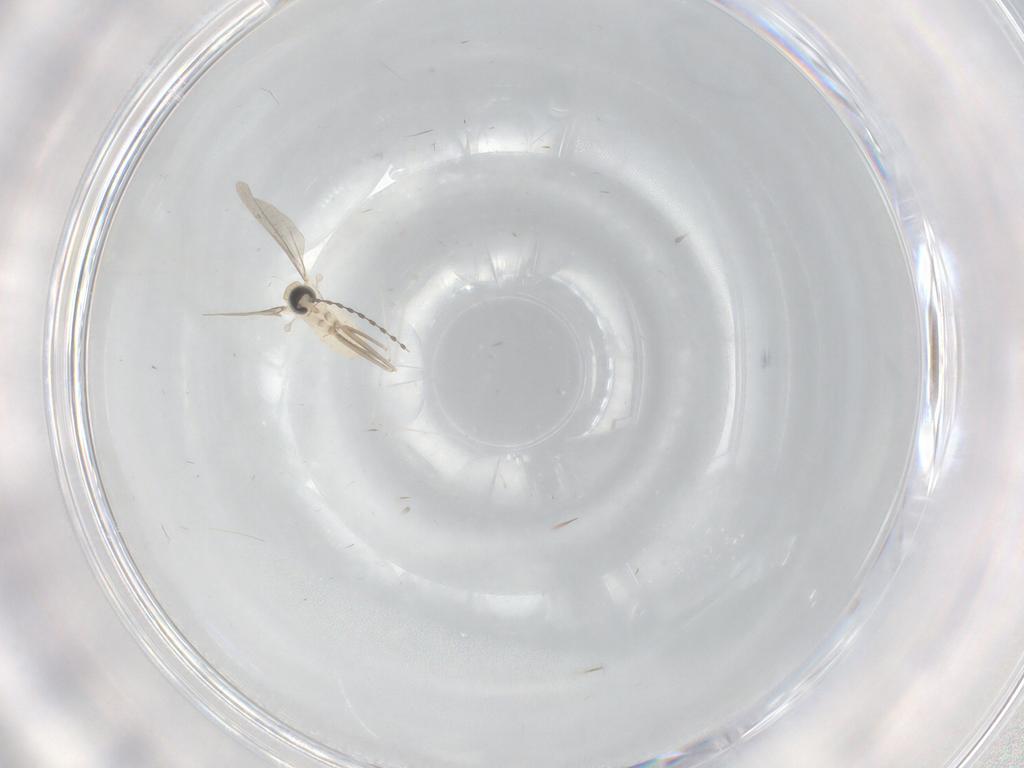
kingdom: Animalia
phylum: Arthropoda
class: Insecta
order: Diptera
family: Cecidomyiidae
